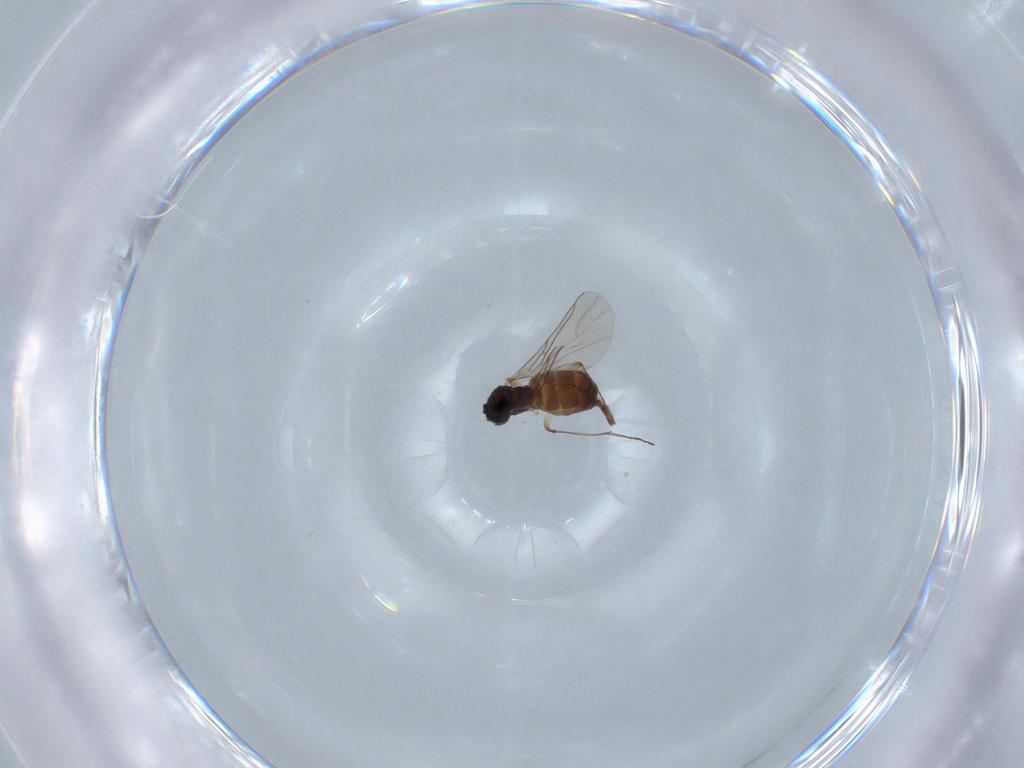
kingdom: Animalia
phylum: Arthropoda
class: Insecta
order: Diptera
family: Sciaridae
